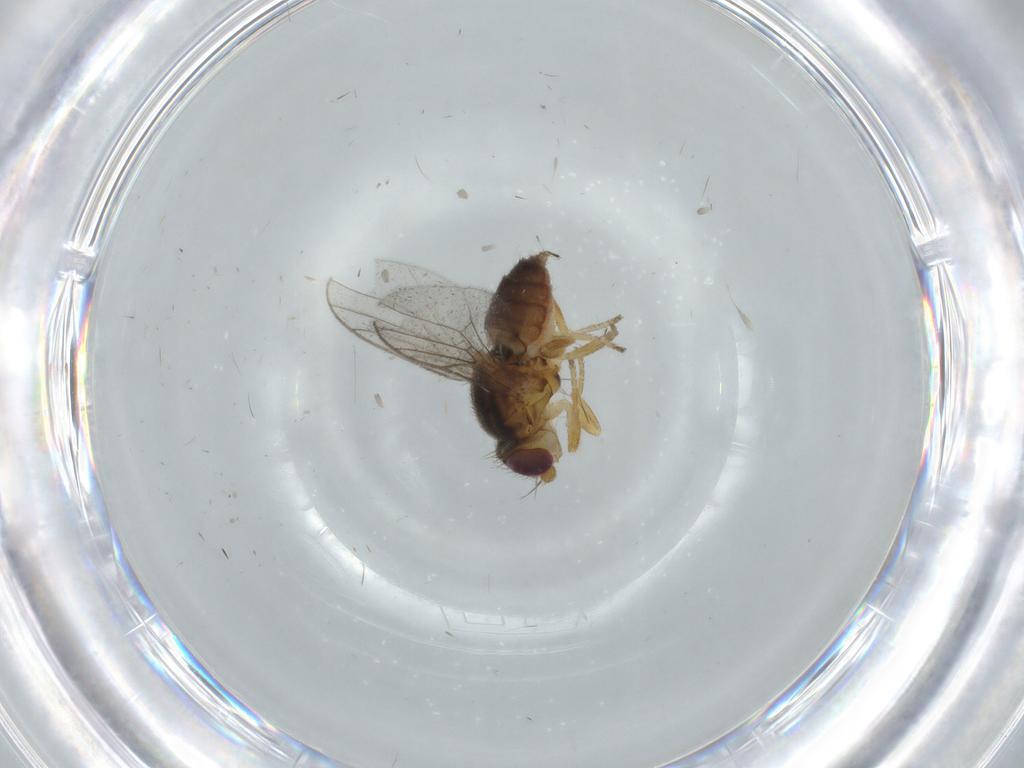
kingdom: Animalia
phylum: Arthropoda
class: Insecta
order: Diptera
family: Chloropidae
